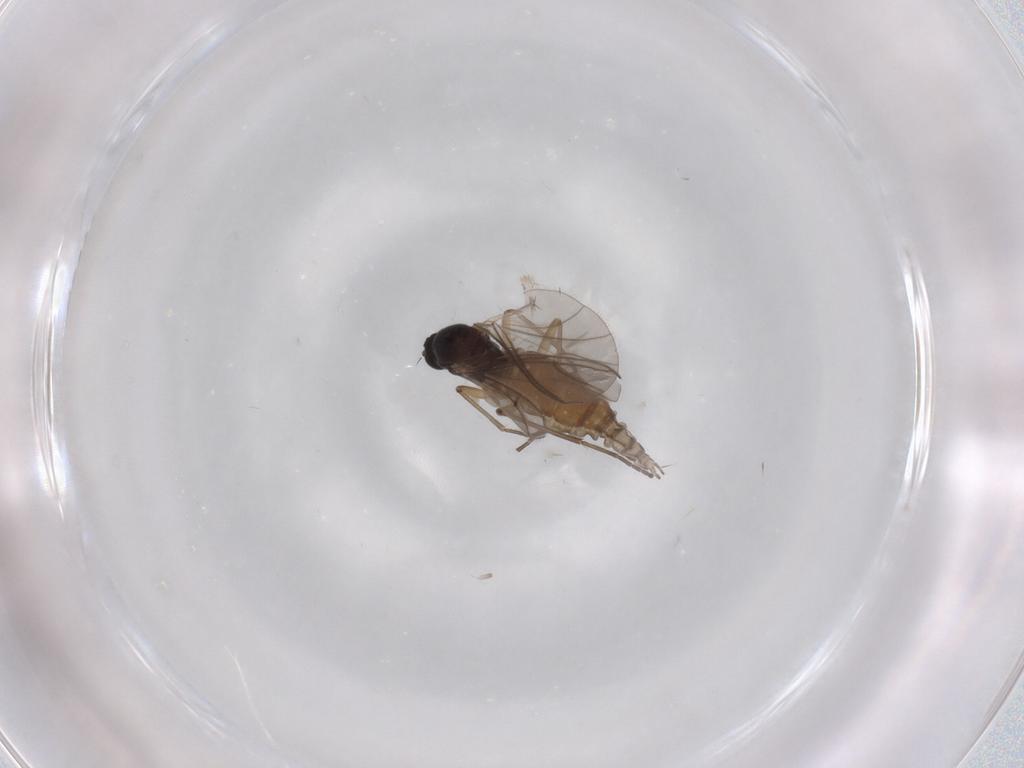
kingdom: Animalia
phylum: Arthropoda
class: Insecta
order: Diptera
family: Sciaridae
